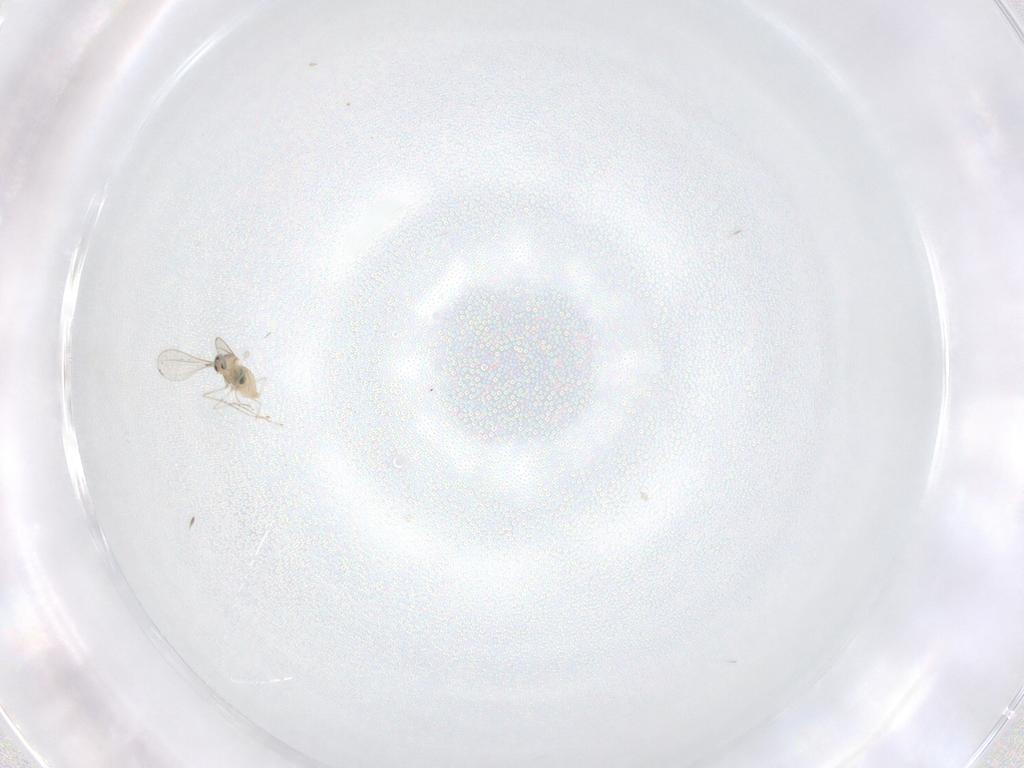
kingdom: Animalia
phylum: Arthropoda
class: Insecta
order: Diptera
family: Cecidomyiidae
